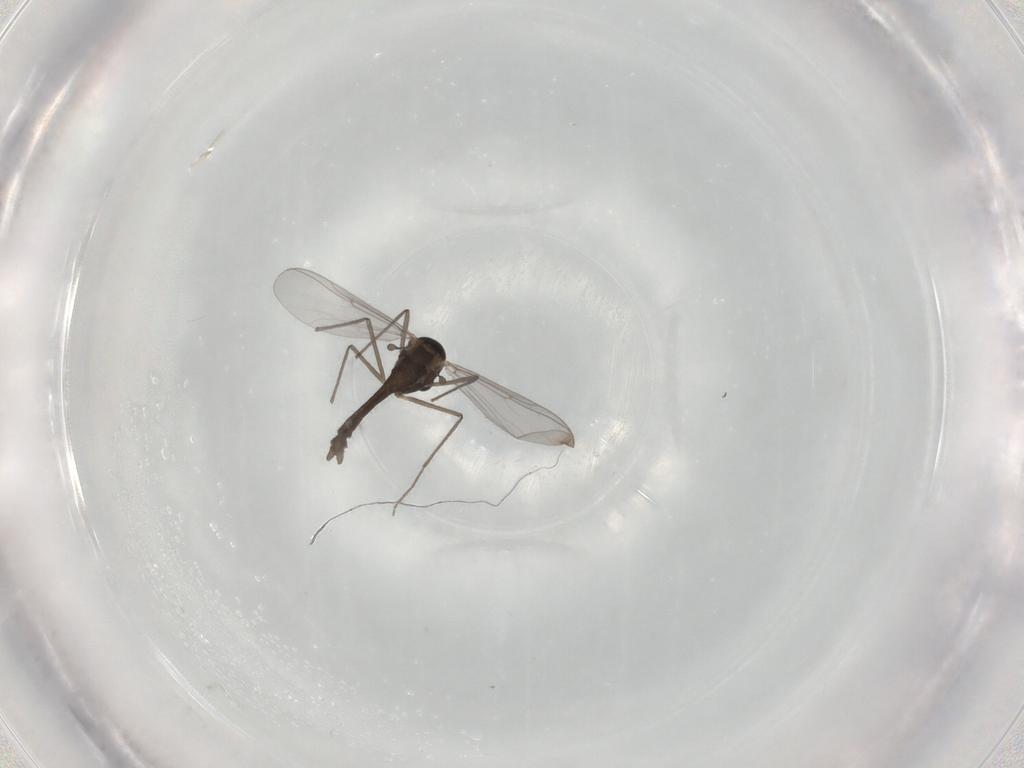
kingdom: Animalia
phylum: Arthropoda
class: Insecta
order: Diptera
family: Chironomidae
